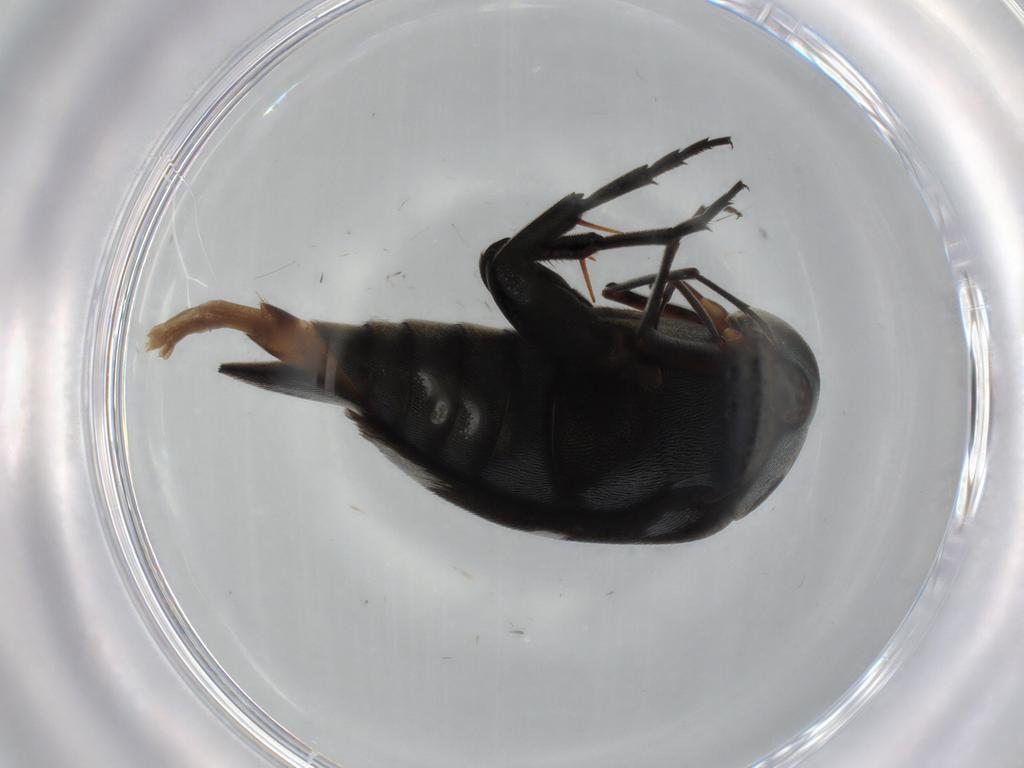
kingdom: Animalia
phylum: Arthropoda
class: Insecta
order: Coleoptera
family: Mordellidae
